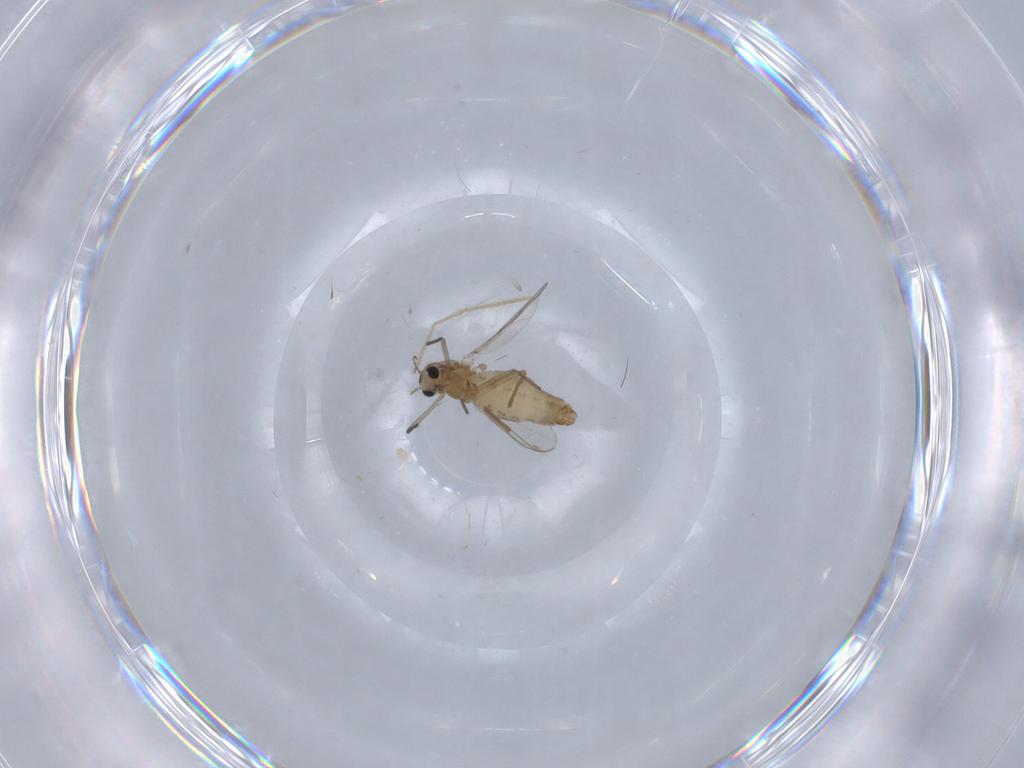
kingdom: Animalia
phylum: Arthropoda
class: Insecta
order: Diptera
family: Chironomidae
